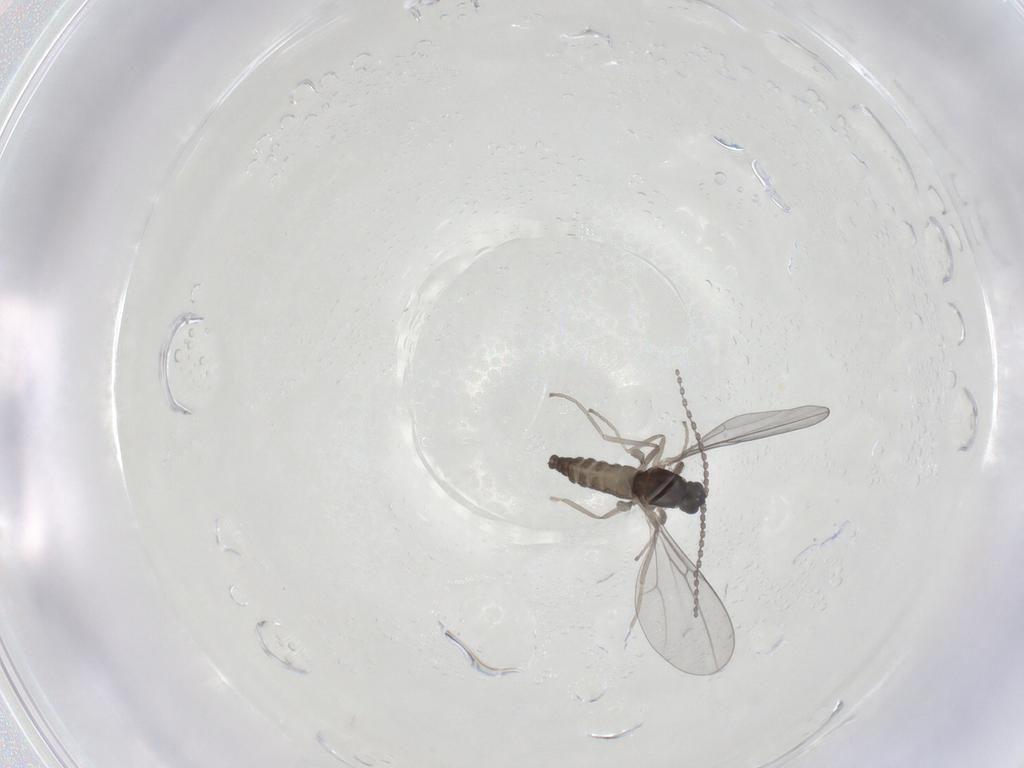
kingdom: Animalia
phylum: Arthropoda
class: Insecta
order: Diptera
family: Cecidomyiidae
